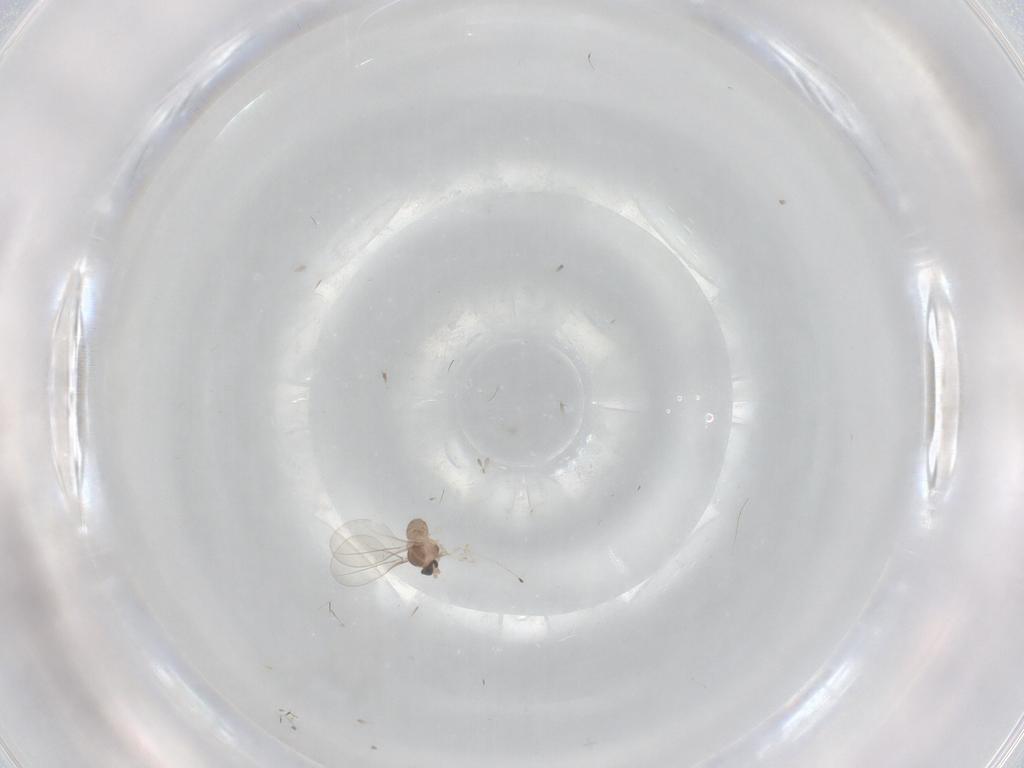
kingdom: Animalia
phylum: Arthropoda
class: Insecta
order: Diptera
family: Cecidomyiidae
